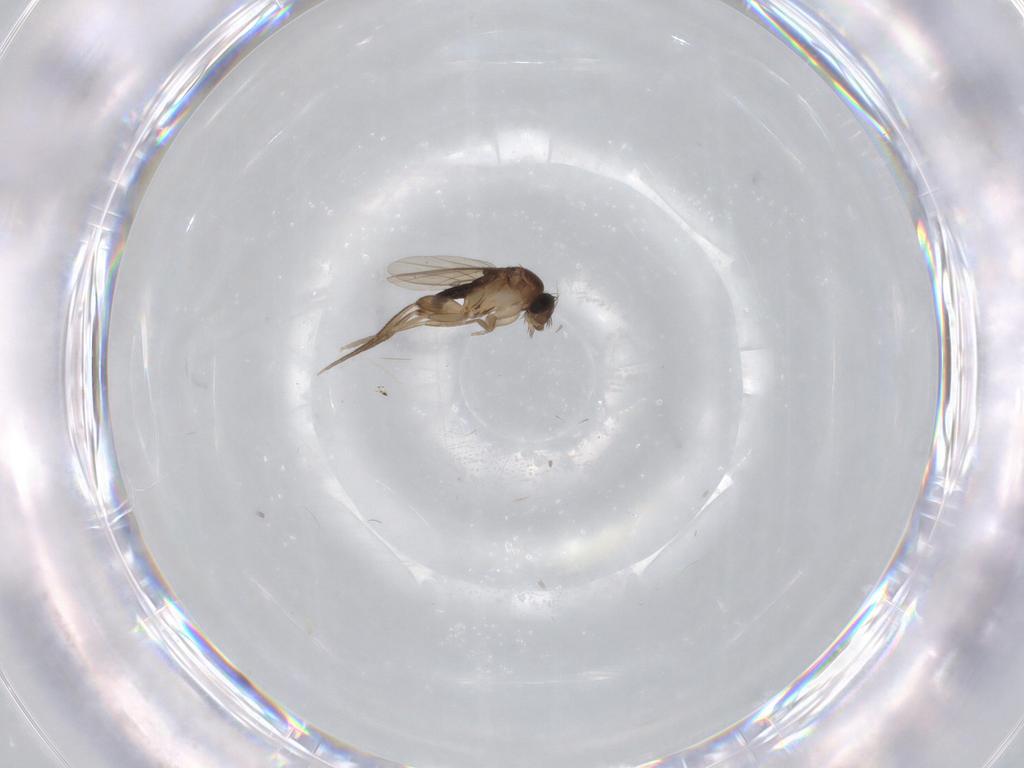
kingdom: Animalia
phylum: Arthropoda
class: Insecta
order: Diptera
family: Phoridae
